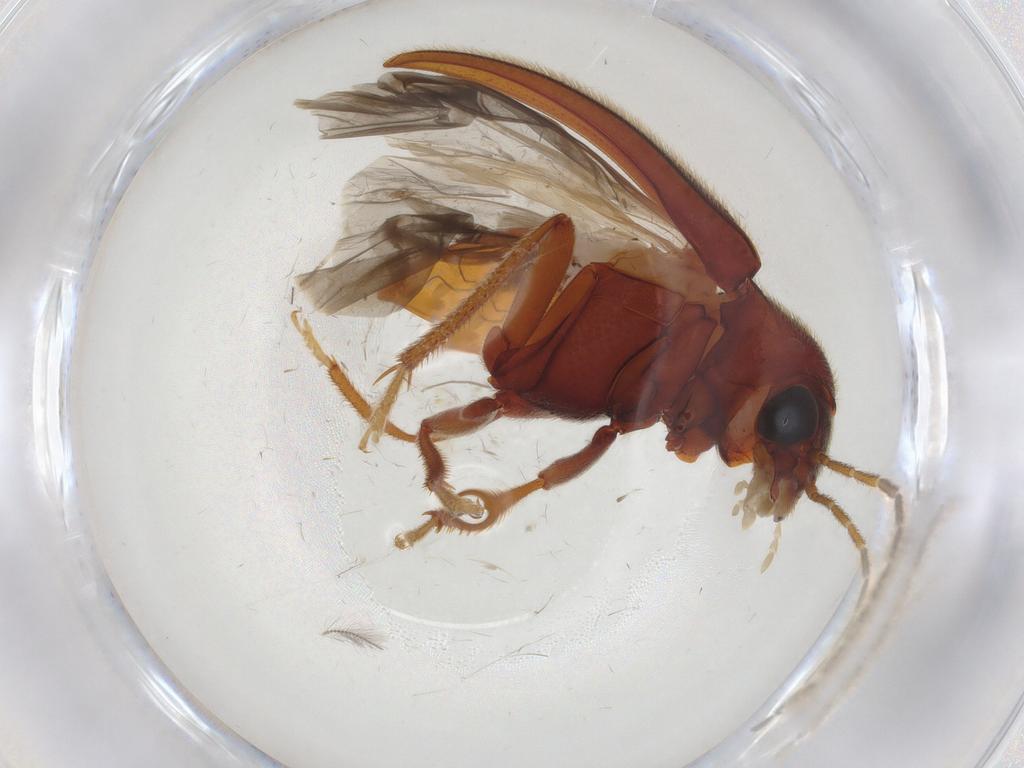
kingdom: Animalia
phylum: Arthropoda
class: Insecta
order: Coleoptera
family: Ptilodactylidae
